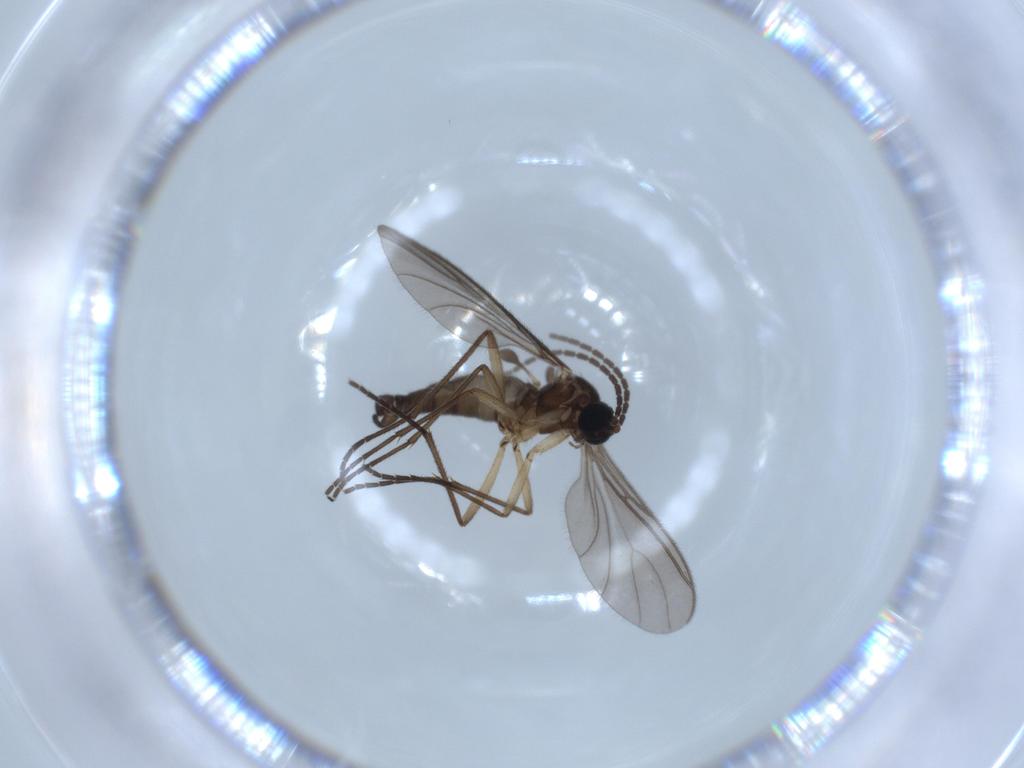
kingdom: Animalia
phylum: Arthropoda
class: Insecta
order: Diptera
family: Sciaridae
